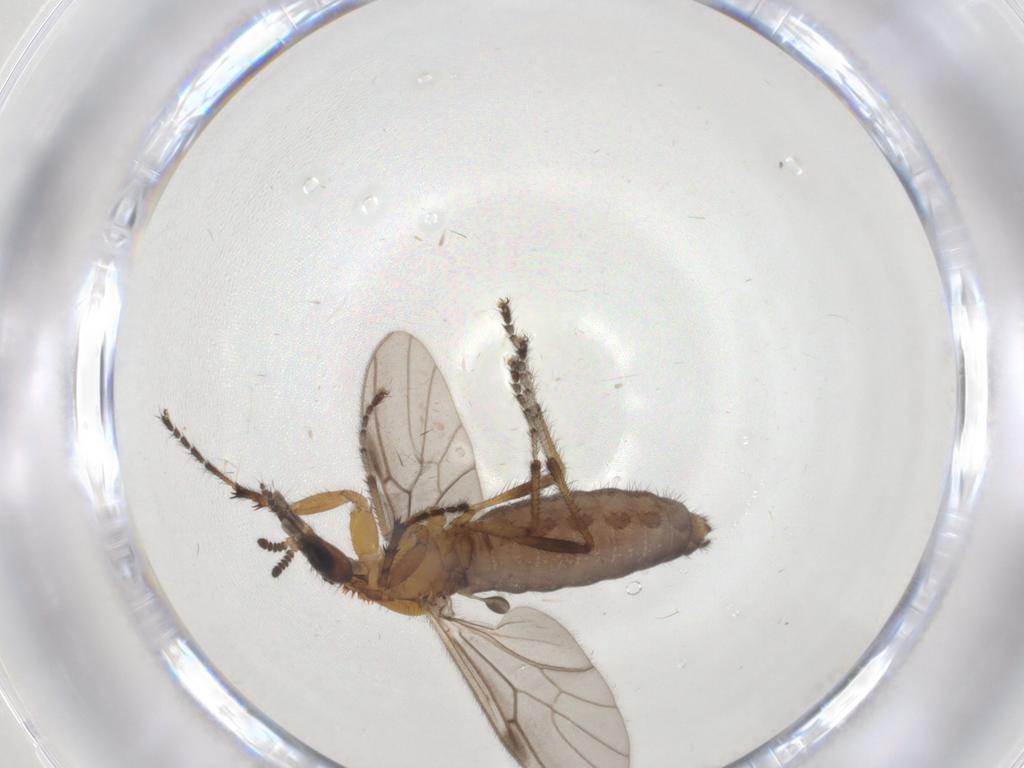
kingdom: Animalia
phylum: Arthropoda
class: Insecta
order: Diptera
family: Bibionidae
